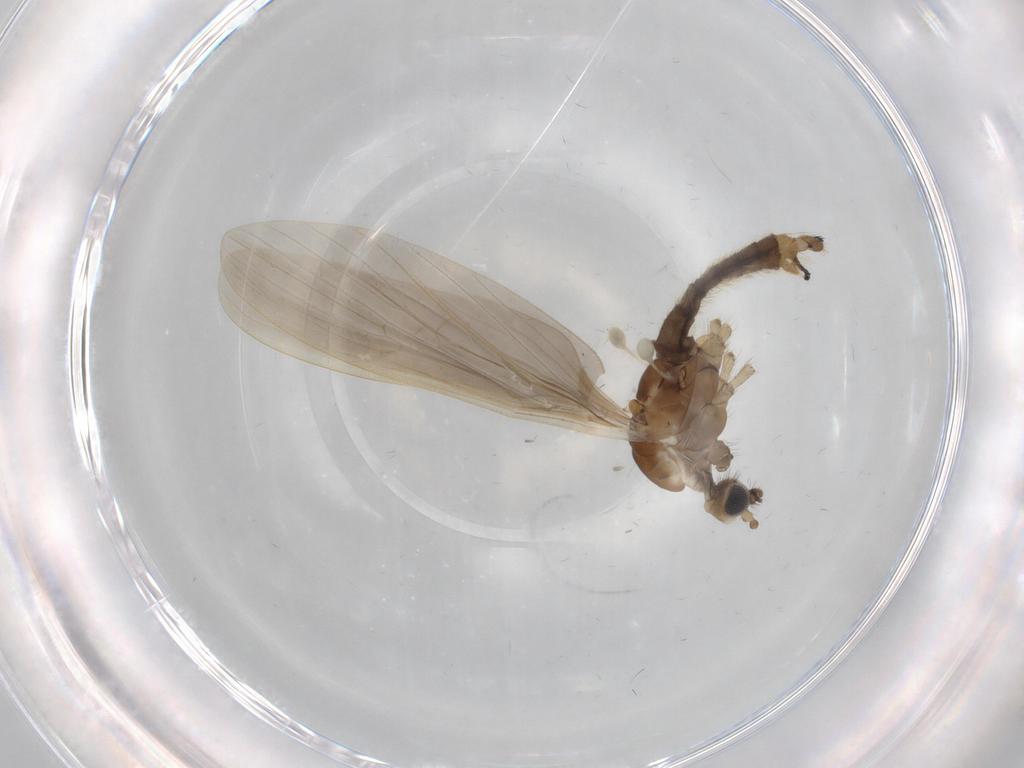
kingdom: Animalia
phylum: Arthropoda
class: Insecta
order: Diptera
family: Limoniidae
